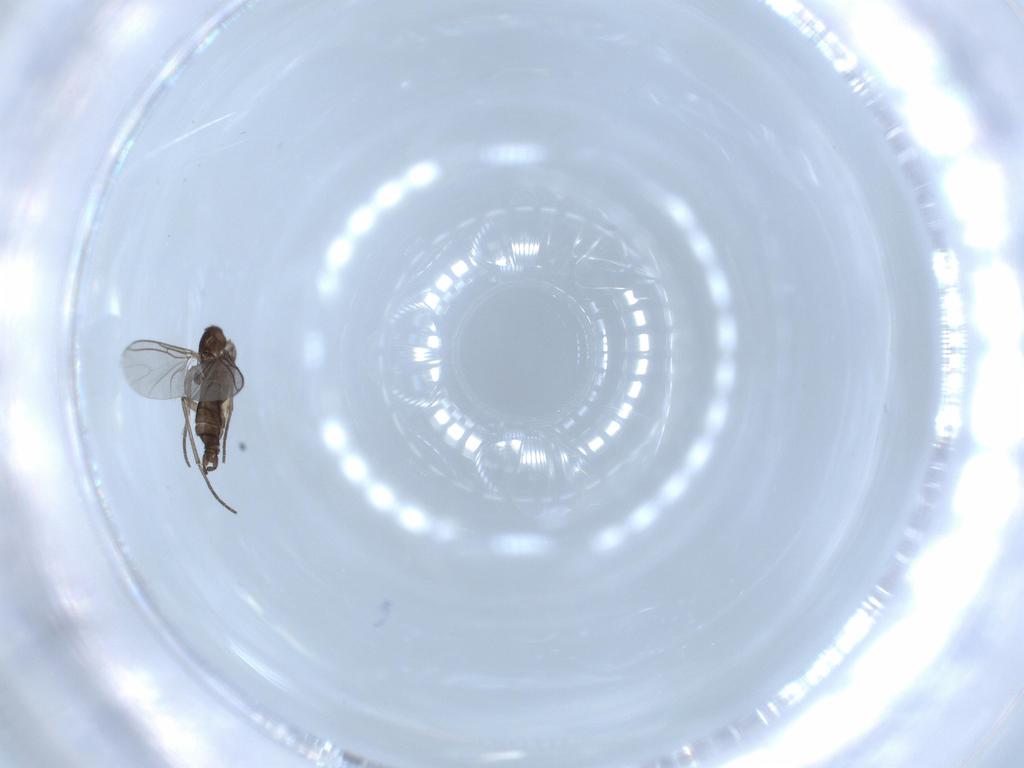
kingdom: Animalia
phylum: Arthropoda
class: Insecta
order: Diptera
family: Sciaridae
